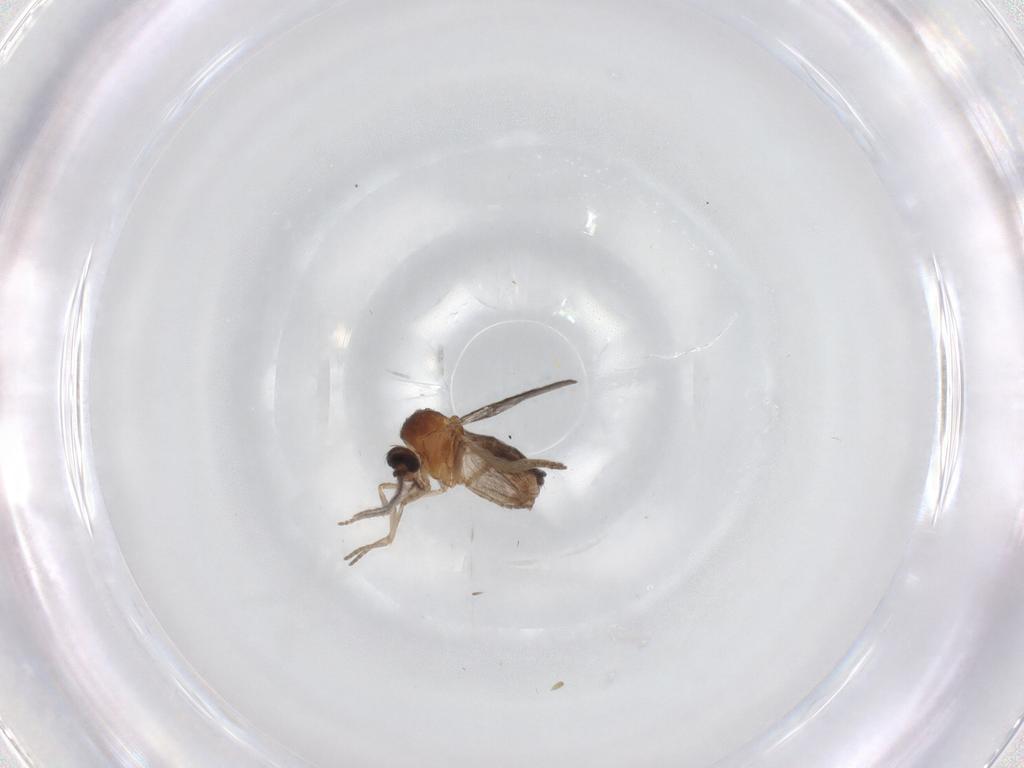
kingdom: Animalia
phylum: Arthropoda
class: Insecta
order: Diptera
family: Ceratopogonidae
